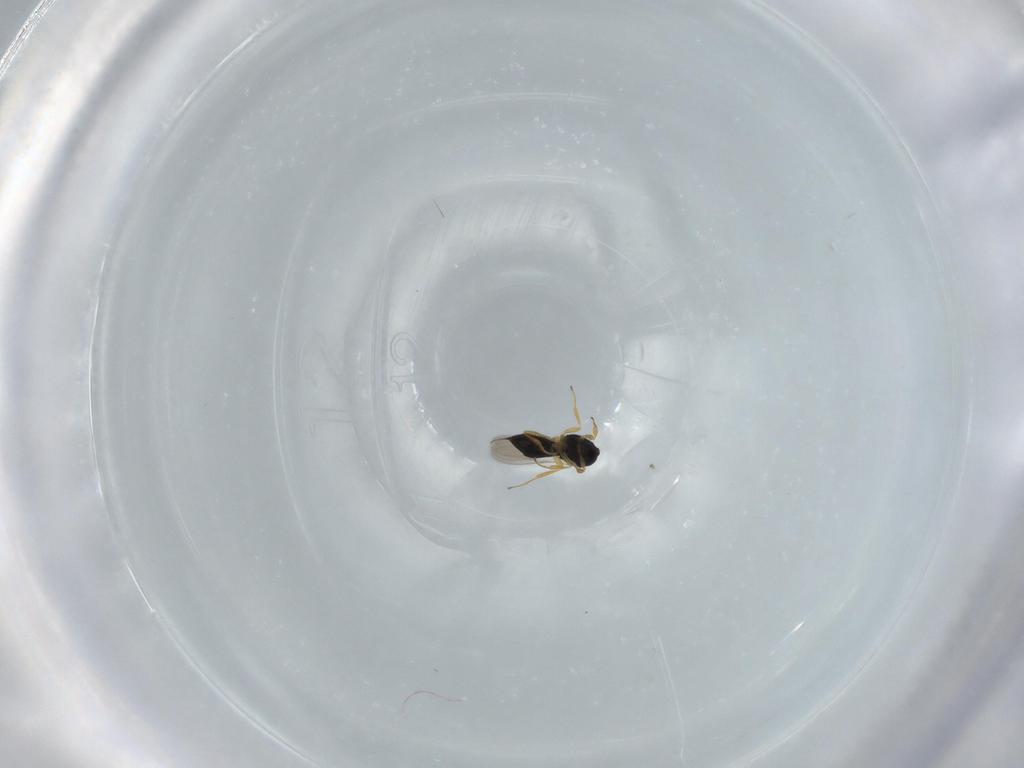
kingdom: Animalia
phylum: Arthropoda
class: Insecta
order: Hymenoptera
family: Scelionidae
